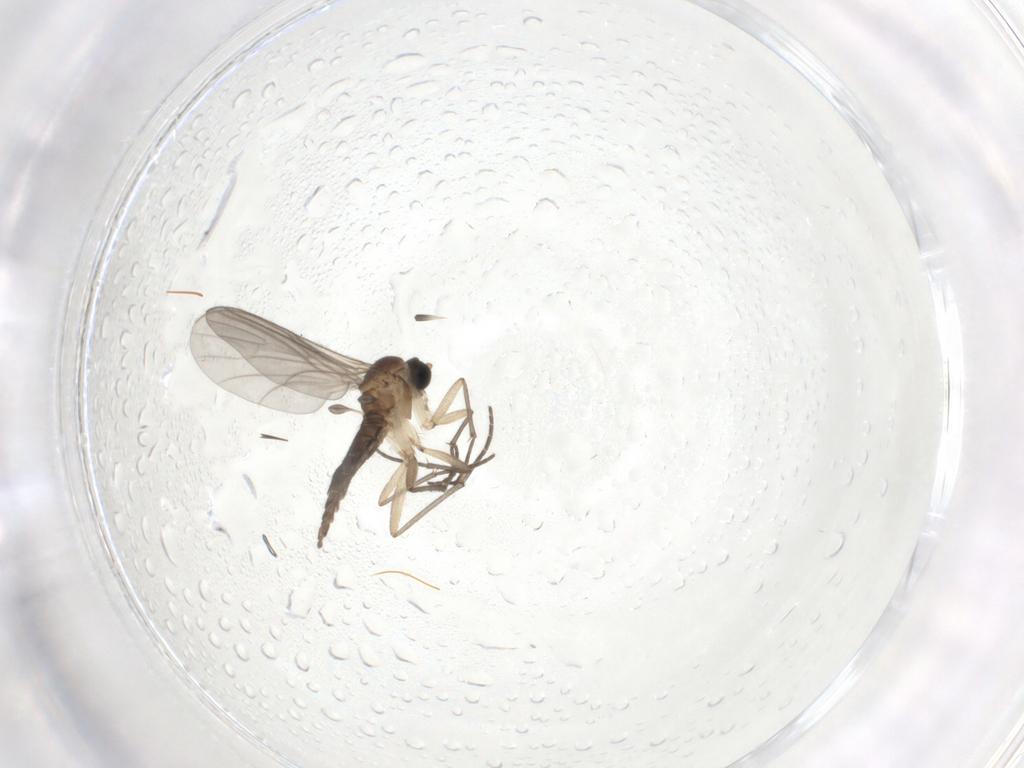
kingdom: Animalia
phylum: Arthropoda
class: Insecta
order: Diptera
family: Sciaridae
